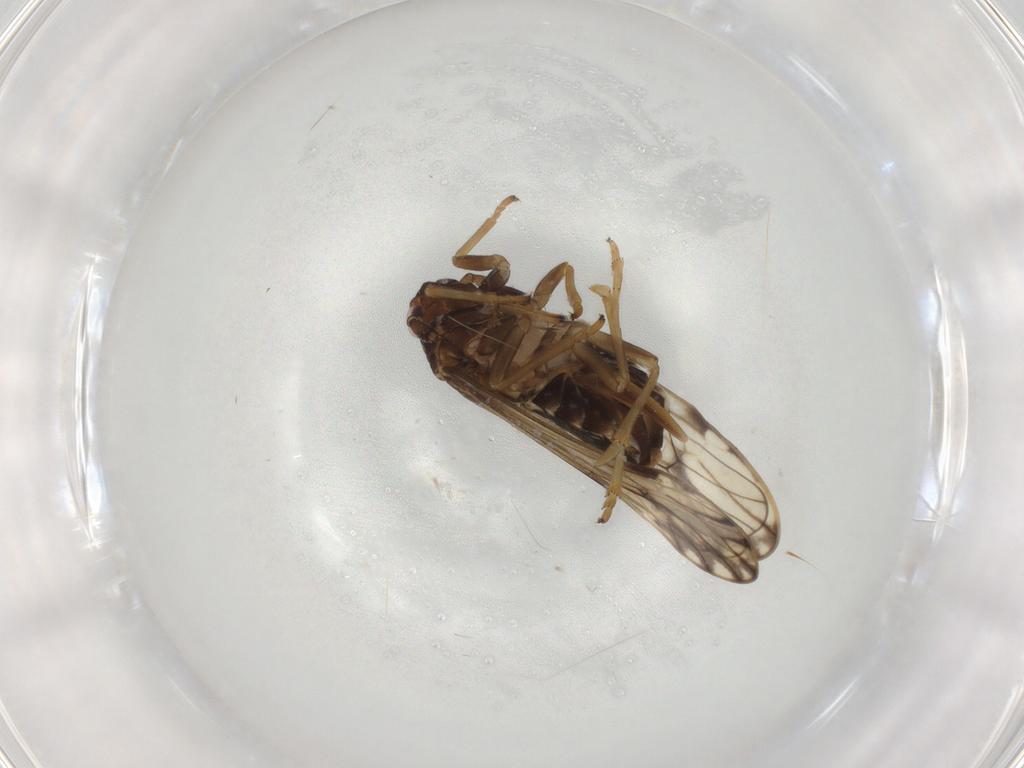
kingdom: Animalia
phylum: Arthropoda
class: Insecta
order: Hemiptera
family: Delphacidae
